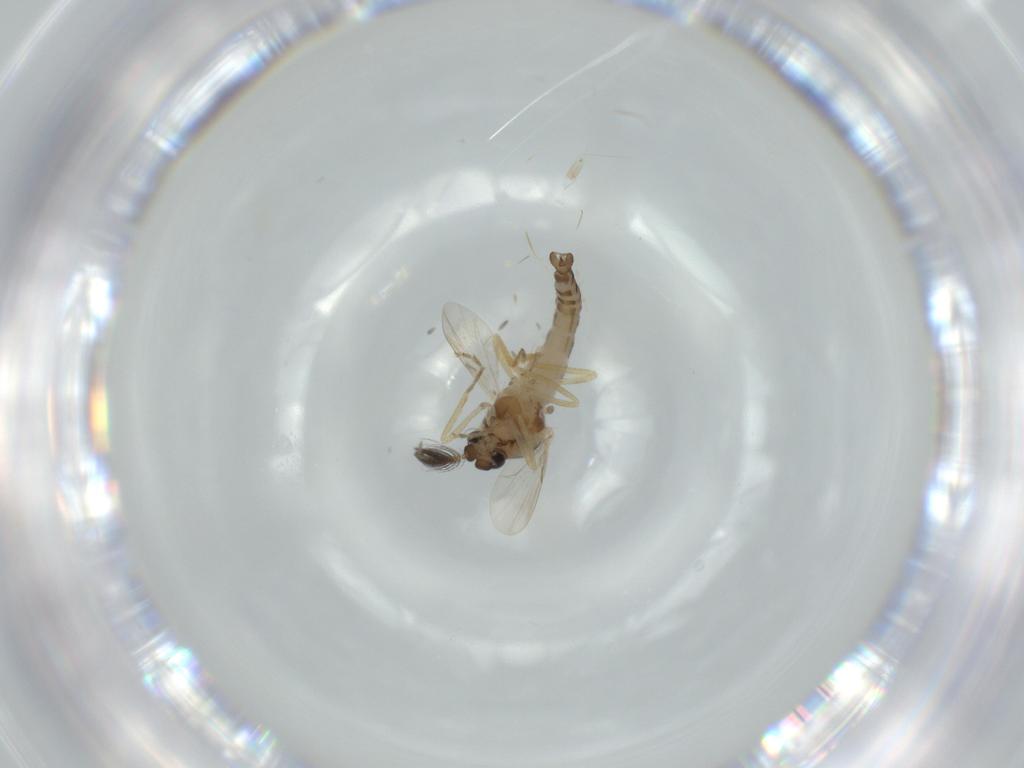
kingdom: Animalia
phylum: Arthropoda
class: Insecta
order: Diptera
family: Ceratopogonidae
